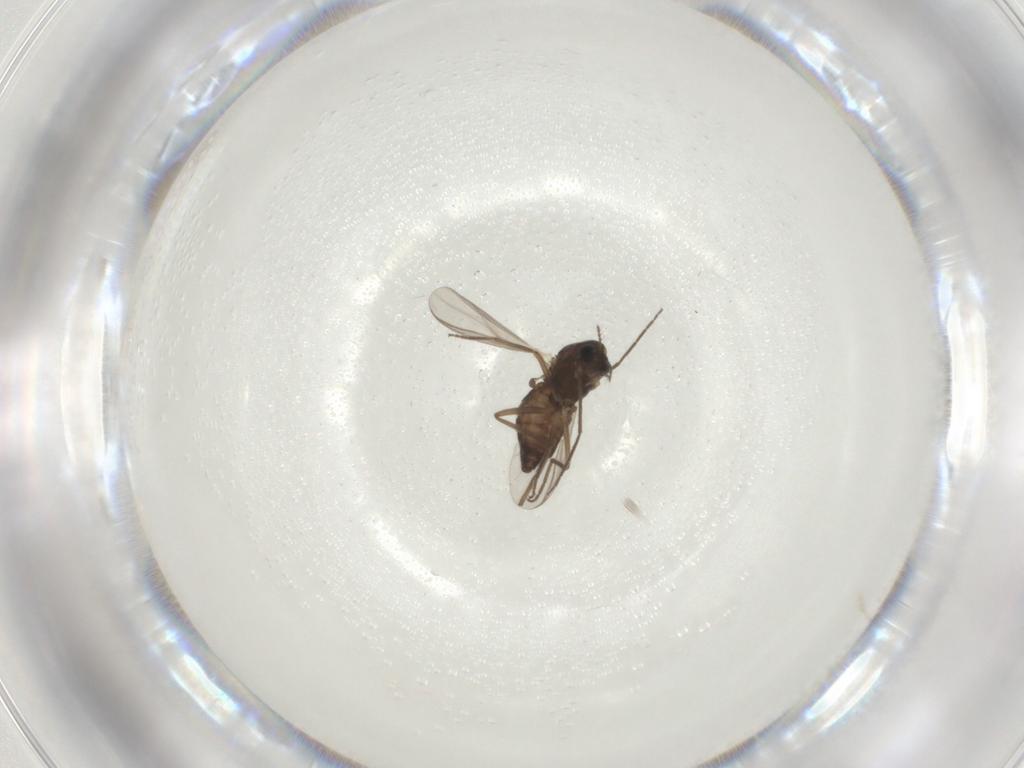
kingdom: Animalia
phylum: Arthropoda
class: Insecta
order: Diptera
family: Chironomidae
